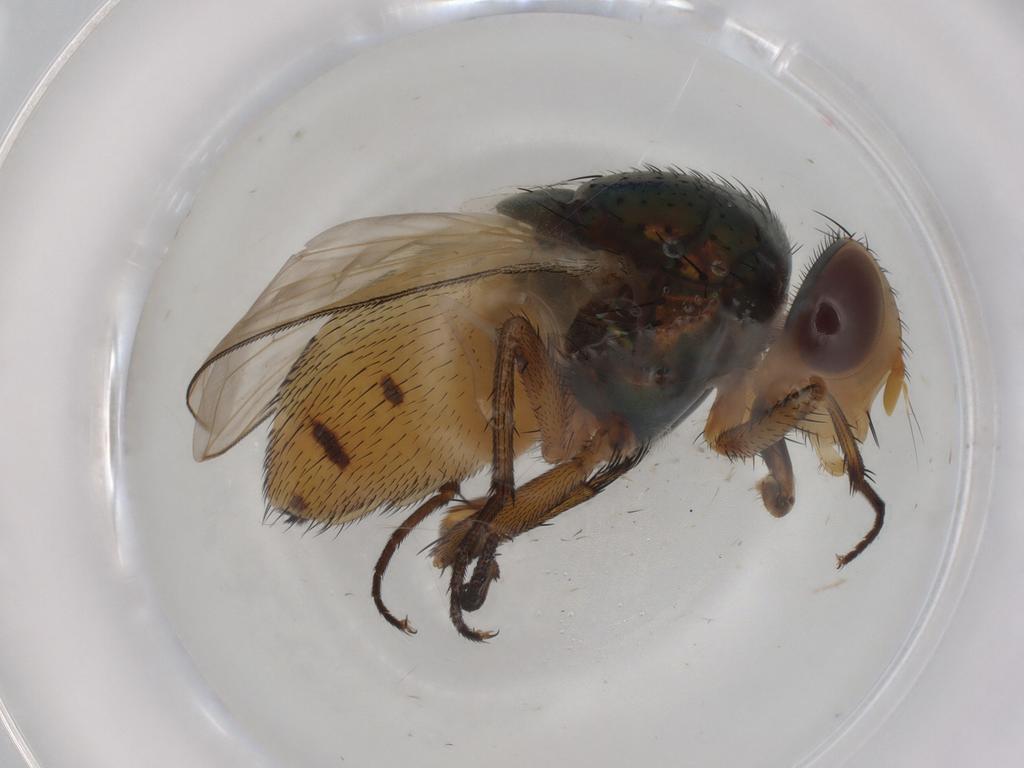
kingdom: Animalia
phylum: Arthropoda
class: Insecta
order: Diptera
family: Calliphoridae
